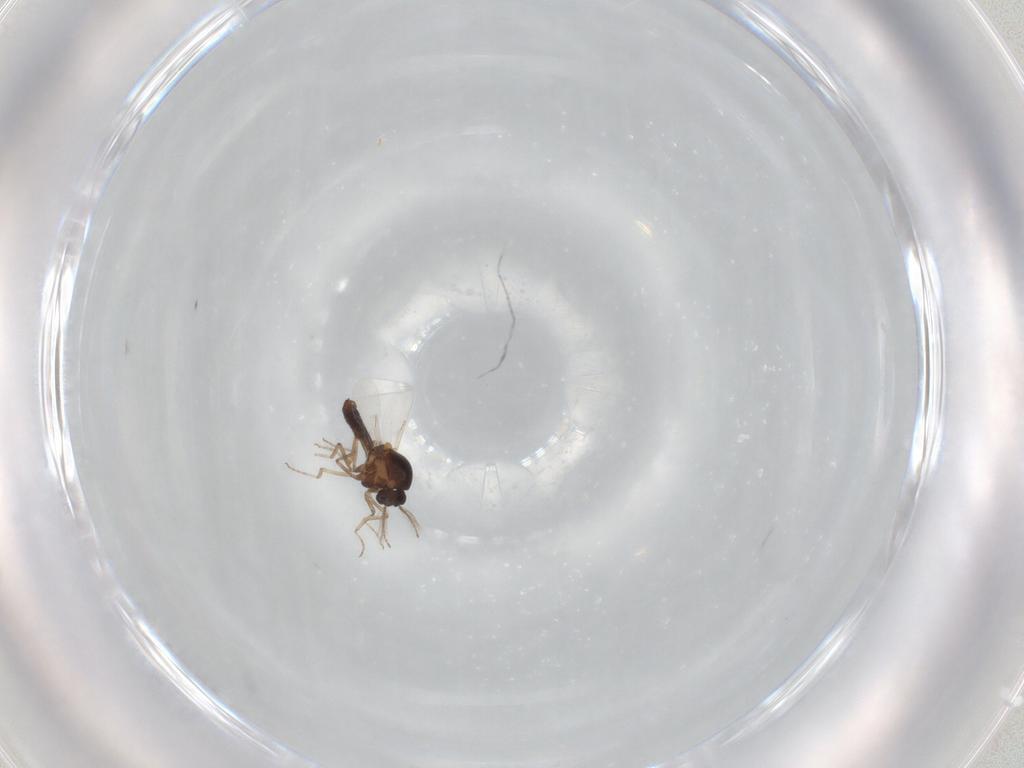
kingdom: Animalia
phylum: Arthropoda
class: Insecta
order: Diptera
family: Ceratopogonidae
